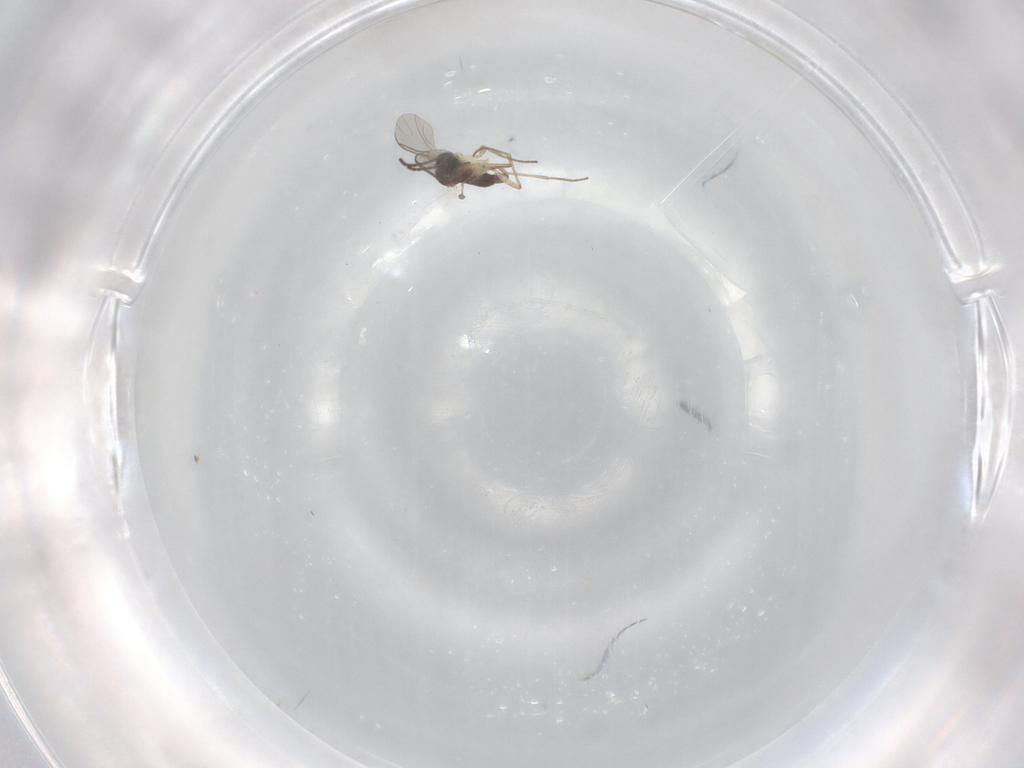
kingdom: Animalia
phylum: Arthropoda
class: Insecta
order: Diptera
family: Sciaridae
